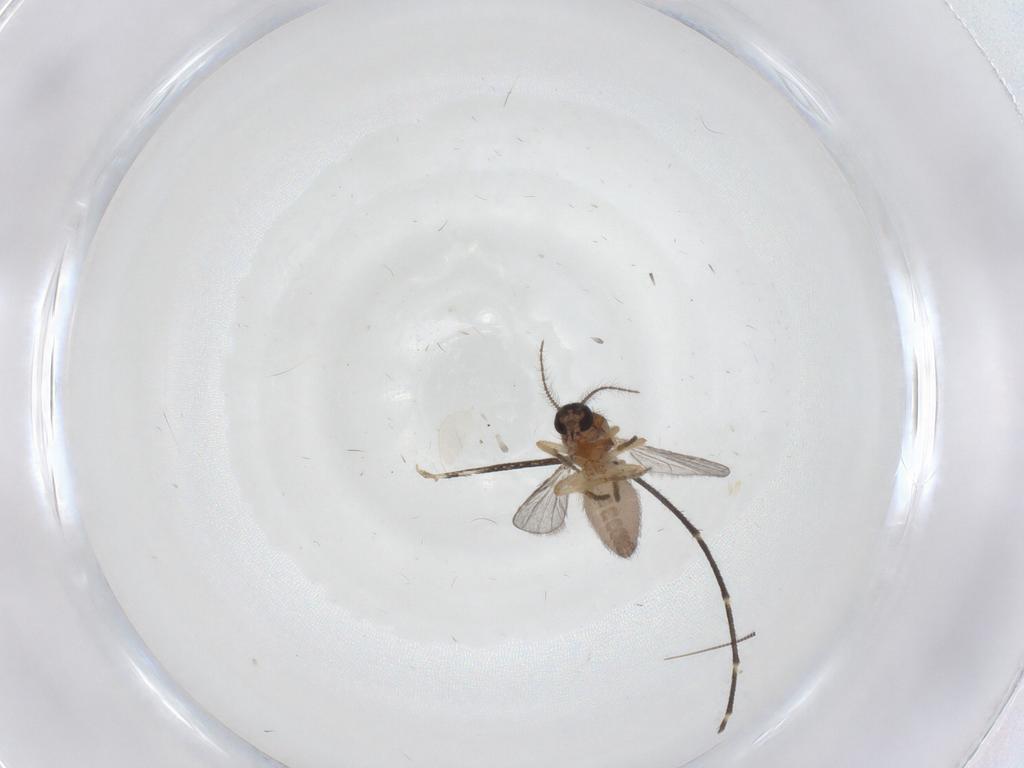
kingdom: Animalia
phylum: Arthropoda
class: Insecta
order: Diptera
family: Ceratopogonidae
